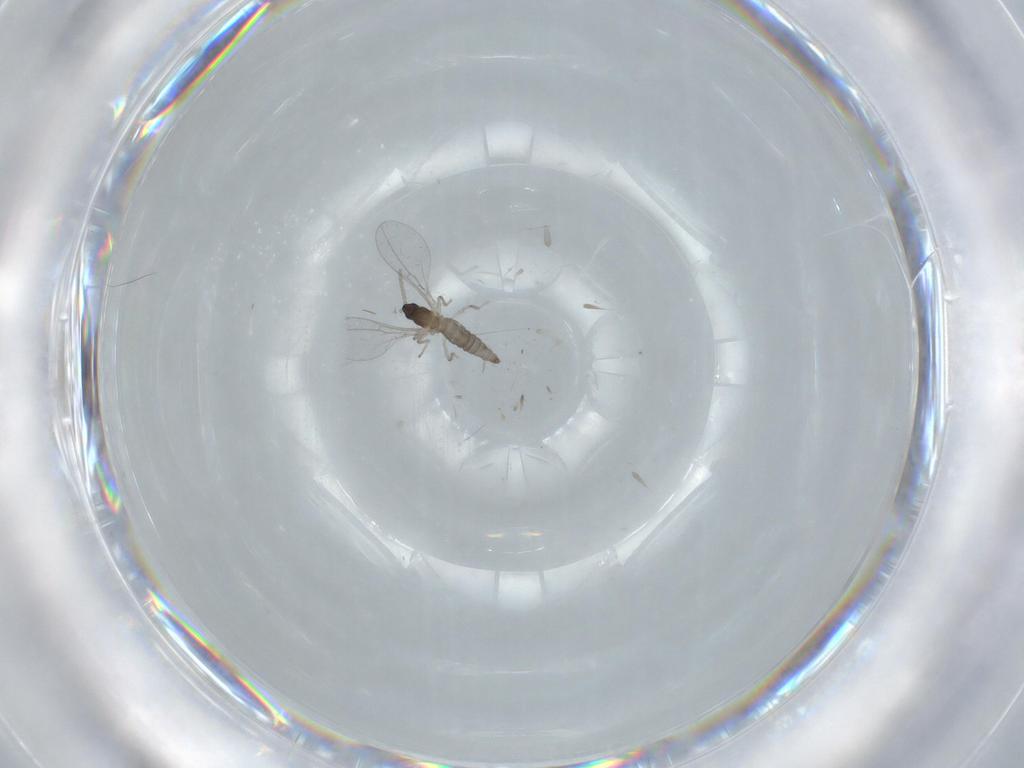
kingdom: Animalia
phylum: Arthropoda
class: Insecta
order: Diptera
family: Cecidomyiidae
